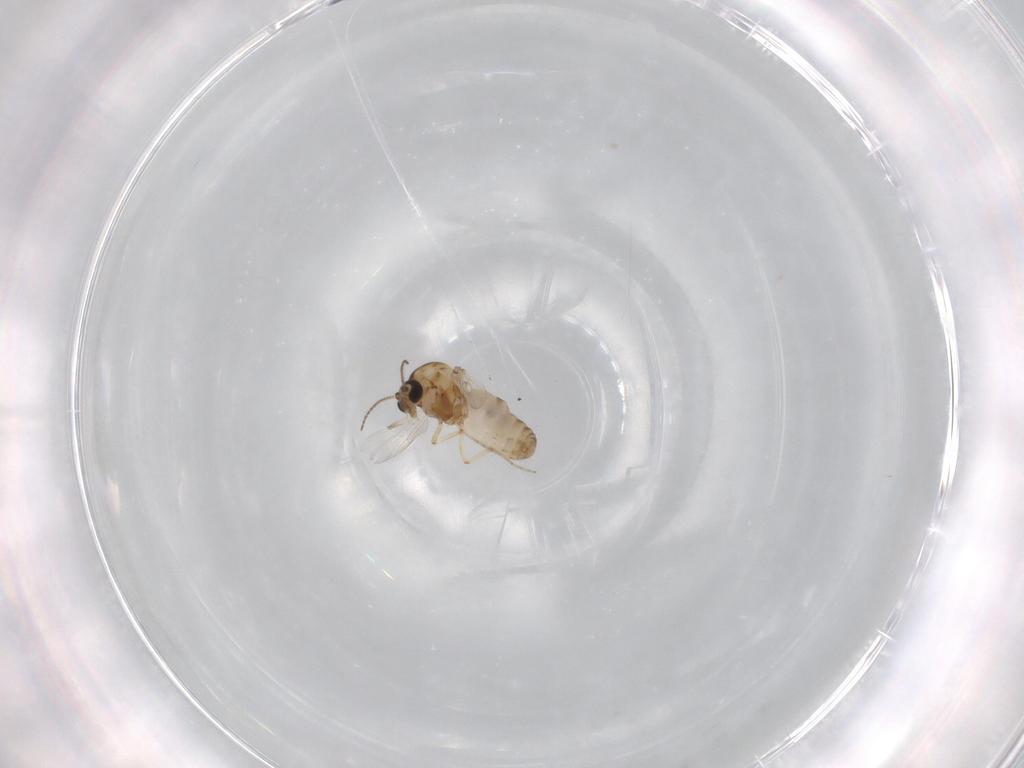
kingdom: Animalia
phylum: Arthropoda
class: Insecta
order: Diptera
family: Ceratopogonidae
